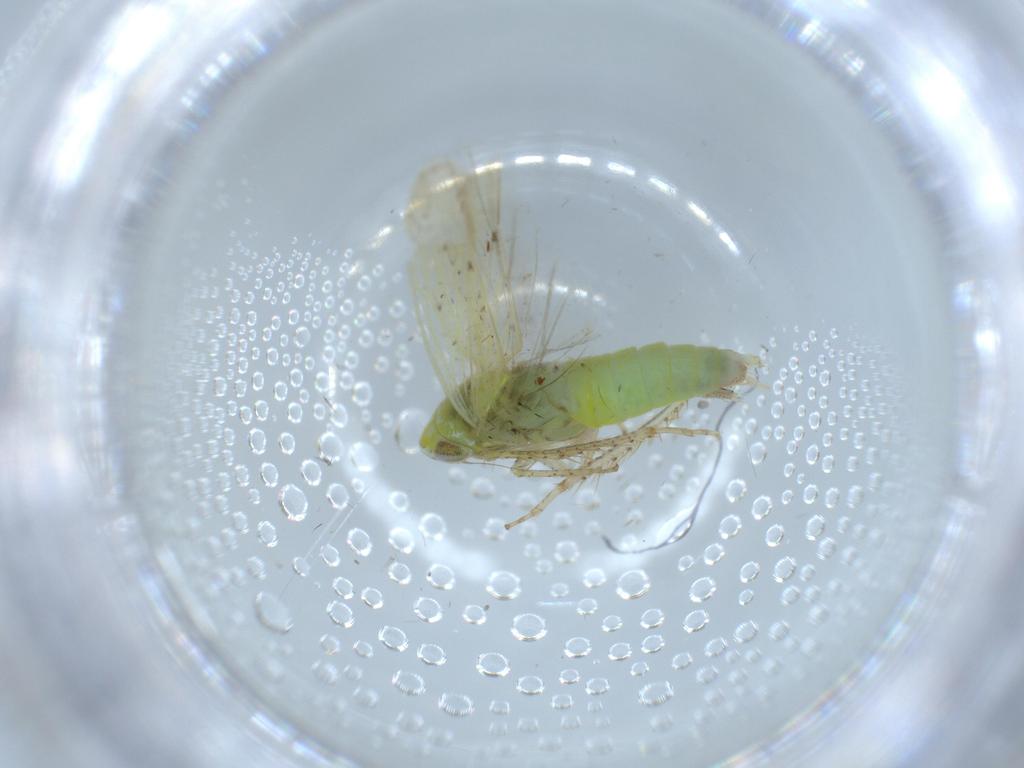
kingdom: Animalia
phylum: Arthropoda
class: Insecta
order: Hemiptera
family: Cicadellidae
